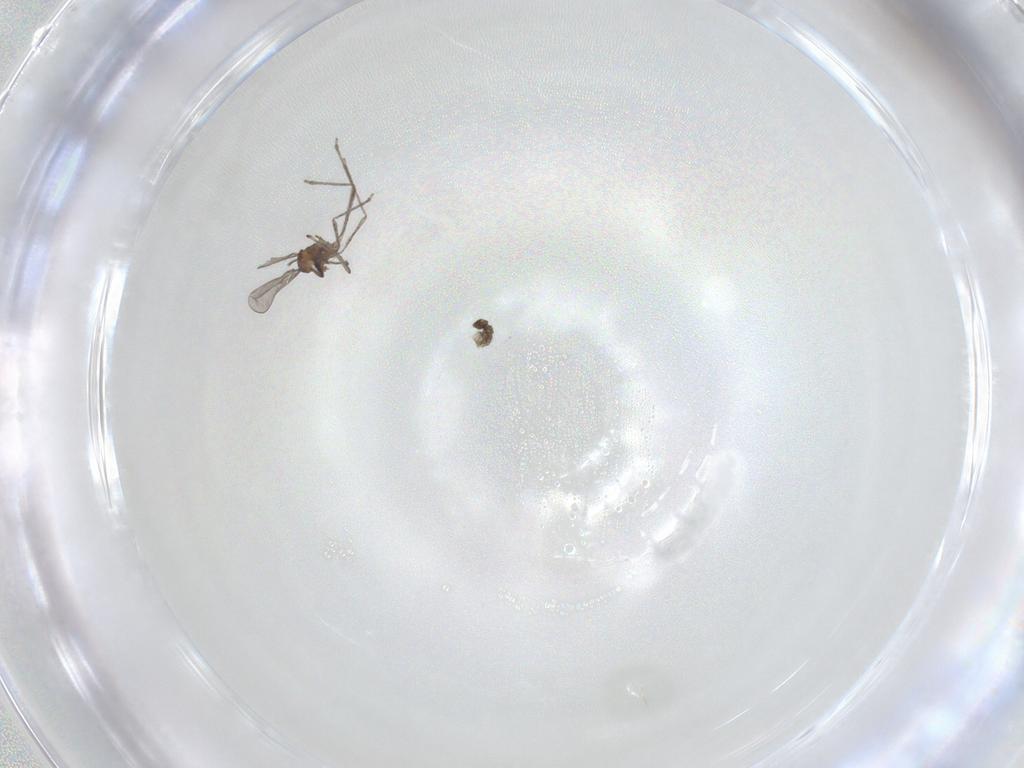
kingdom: Animalia
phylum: Arthropoda
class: Insecta
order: Diptera
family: Cecidomyiidae
